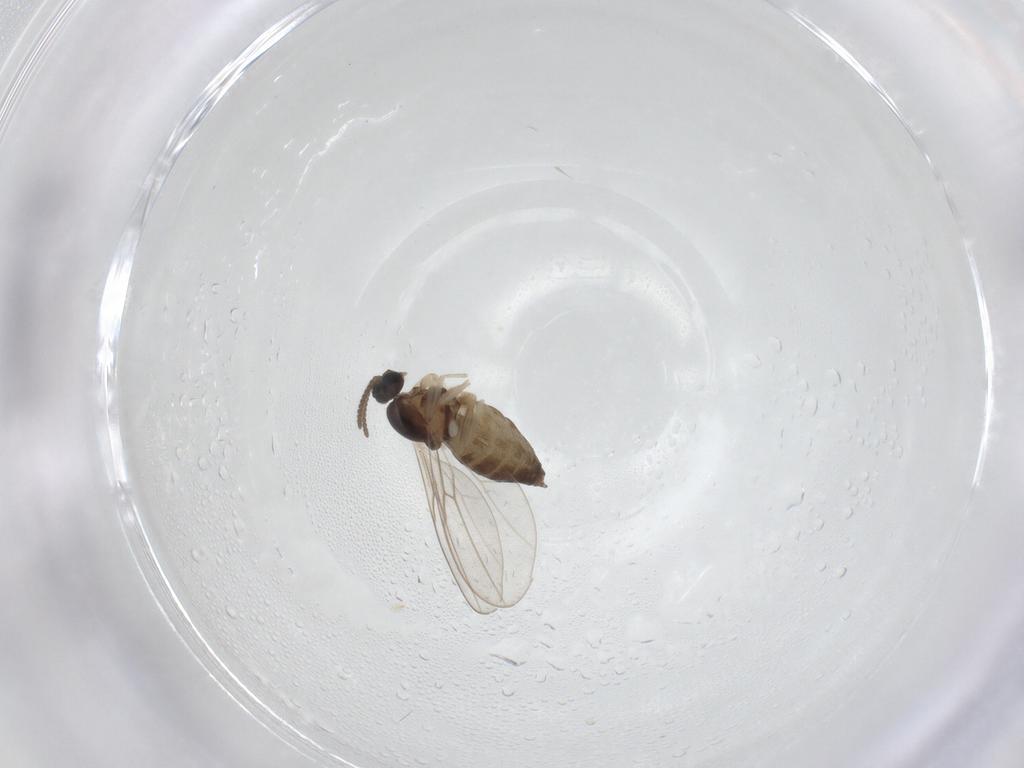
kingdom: Animalia
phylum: Arthropoda
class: Insecta
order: Diptera
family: Cecidomyiidae
